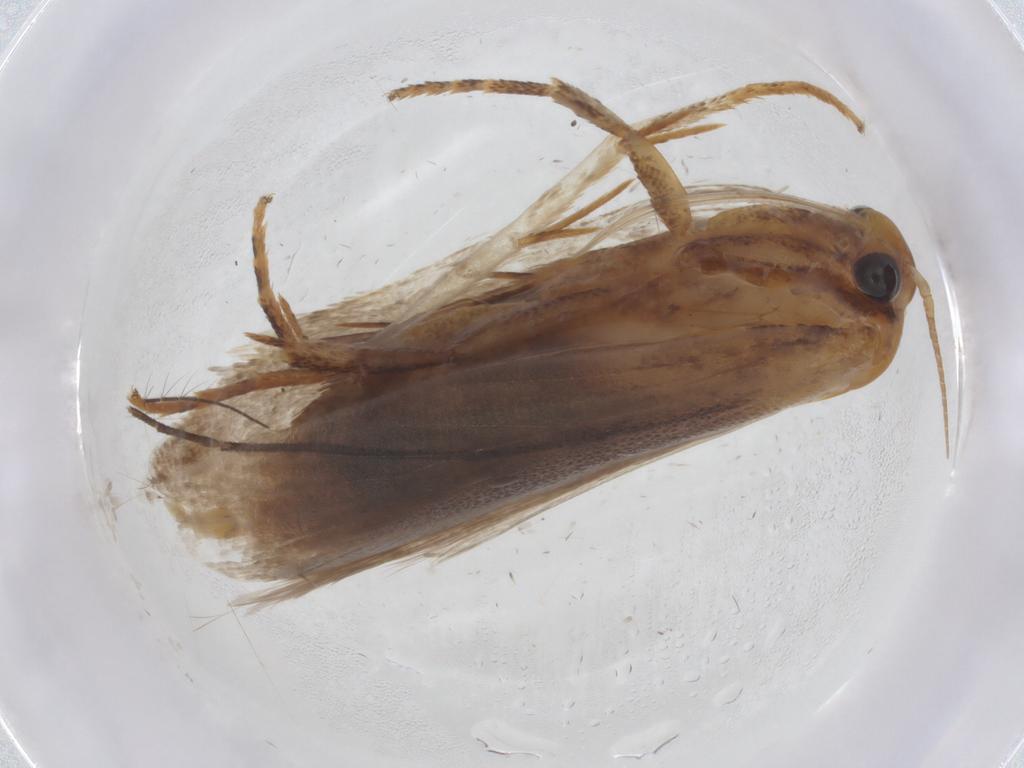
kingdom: Animalia
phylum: Arthropoda
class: Insecta
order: Lepidoptera
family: Oecophoridae
